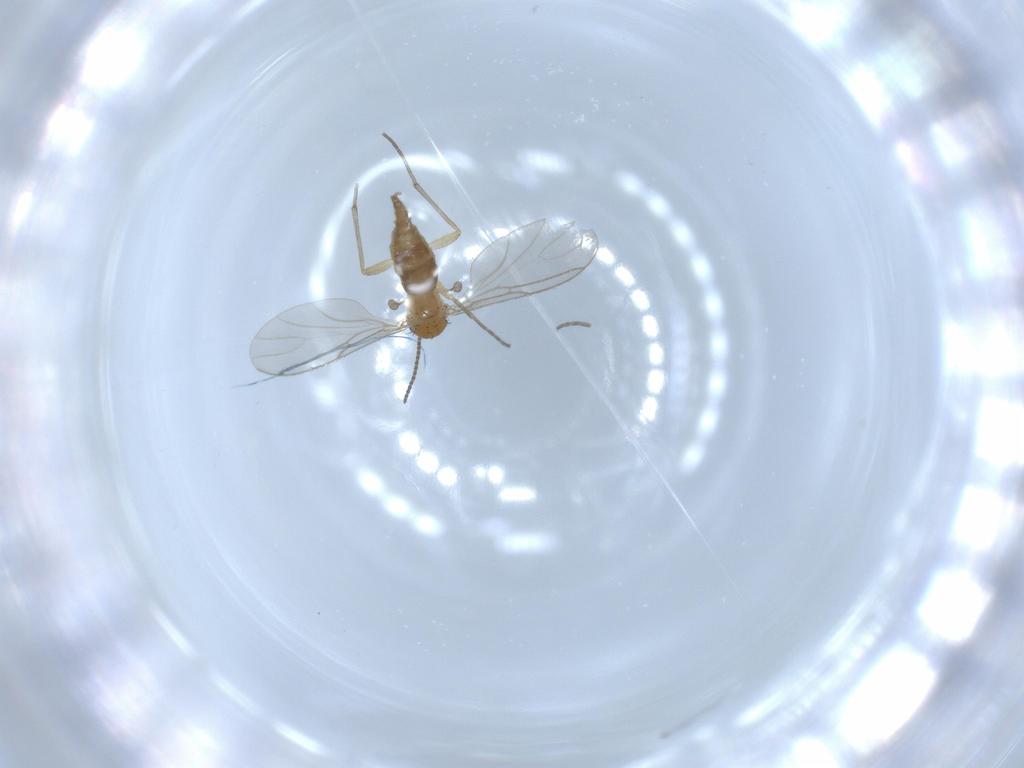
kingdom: Animalia
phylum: Arthropoda
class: Insecta
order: Diptera
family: Sciaridae
